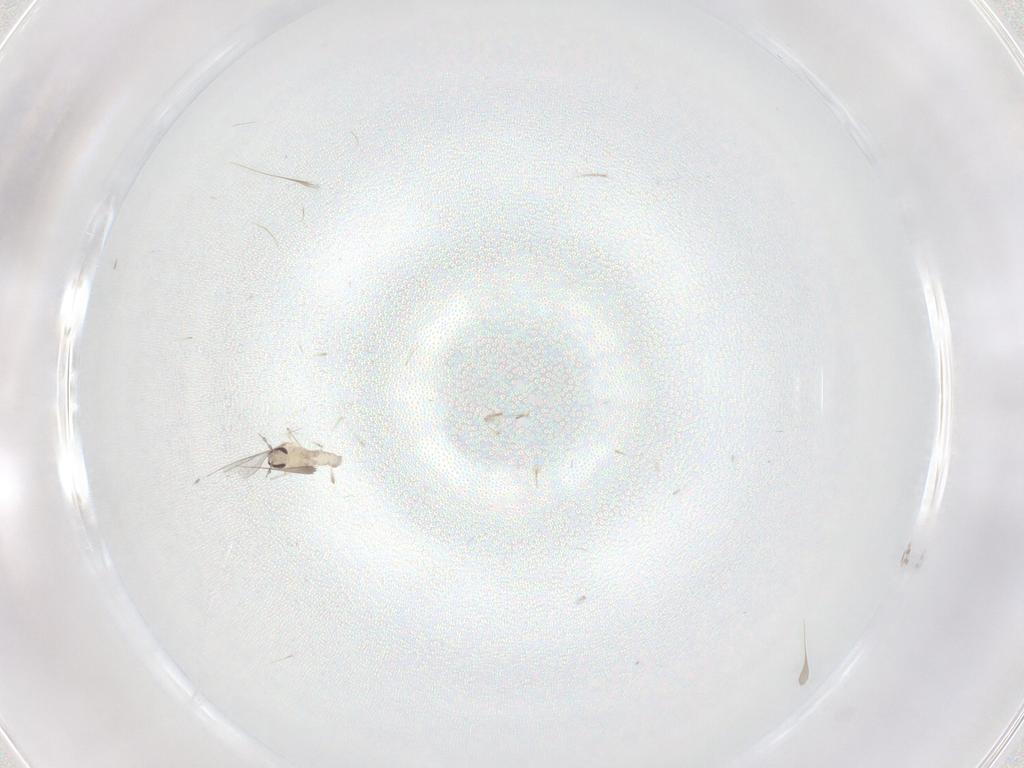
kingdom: Animalia
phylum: Arthropoda
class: Insecta
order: Diptera
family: Cecidomyiidae
